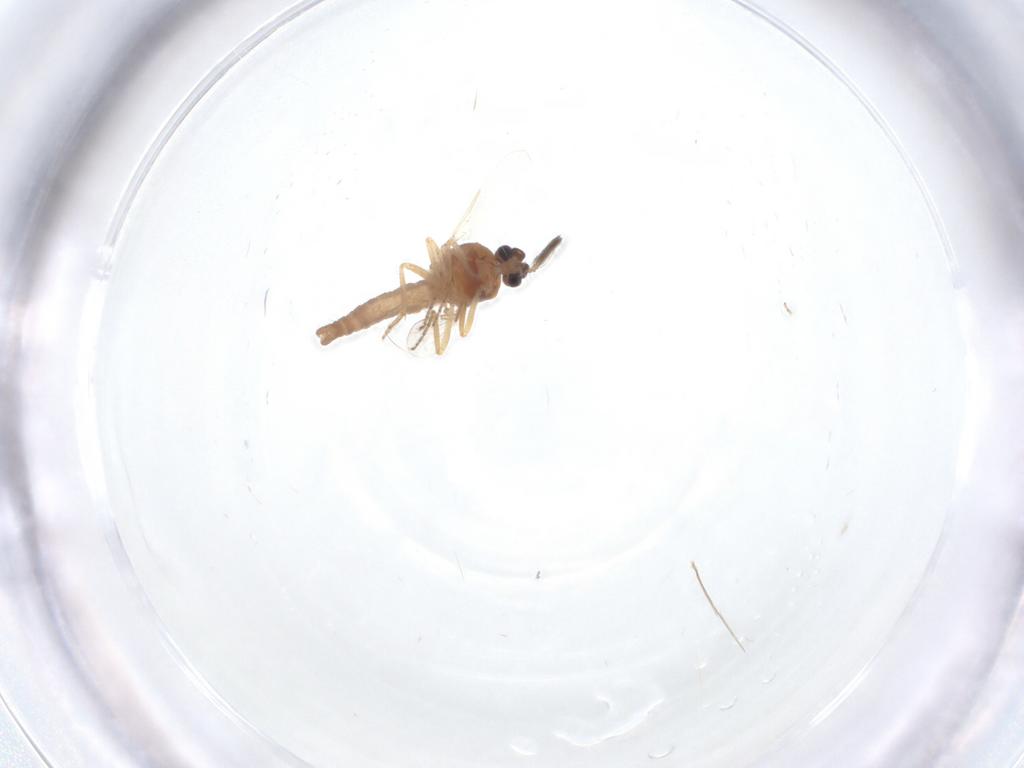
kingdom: Animalia
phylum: Arthropoda
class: Insecta
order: Diptera
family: Ceratopogonidae
